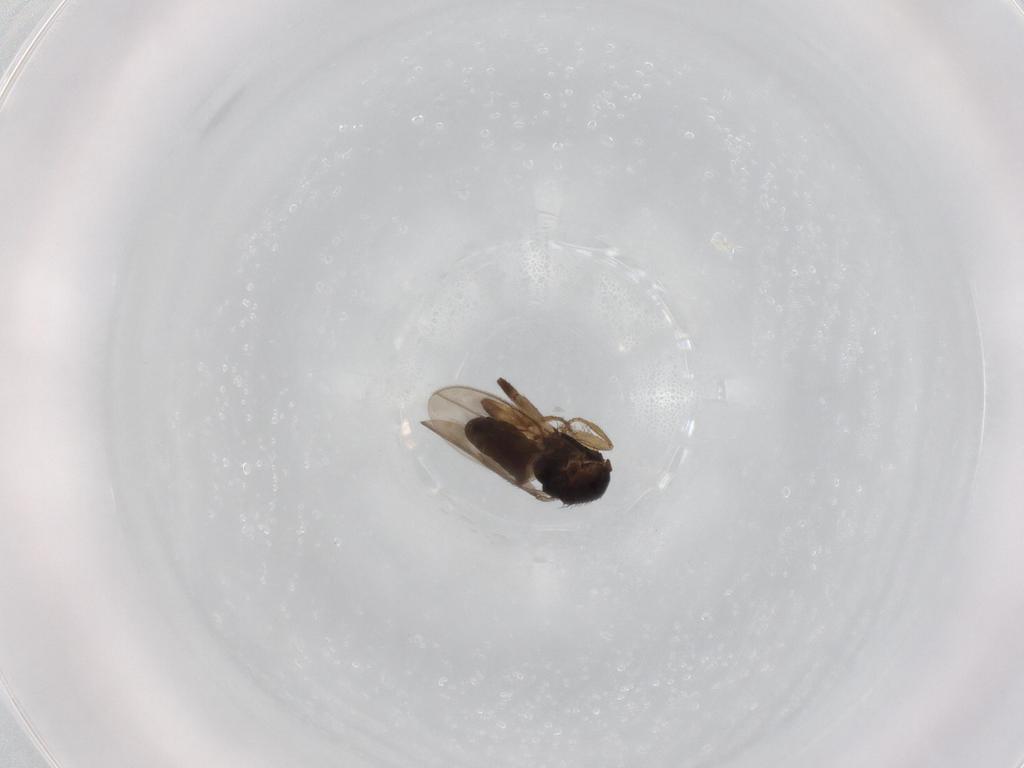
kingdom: Animalia
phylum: Arthropoda
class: Insecta
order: Diptera
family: Sphaeroceridae
